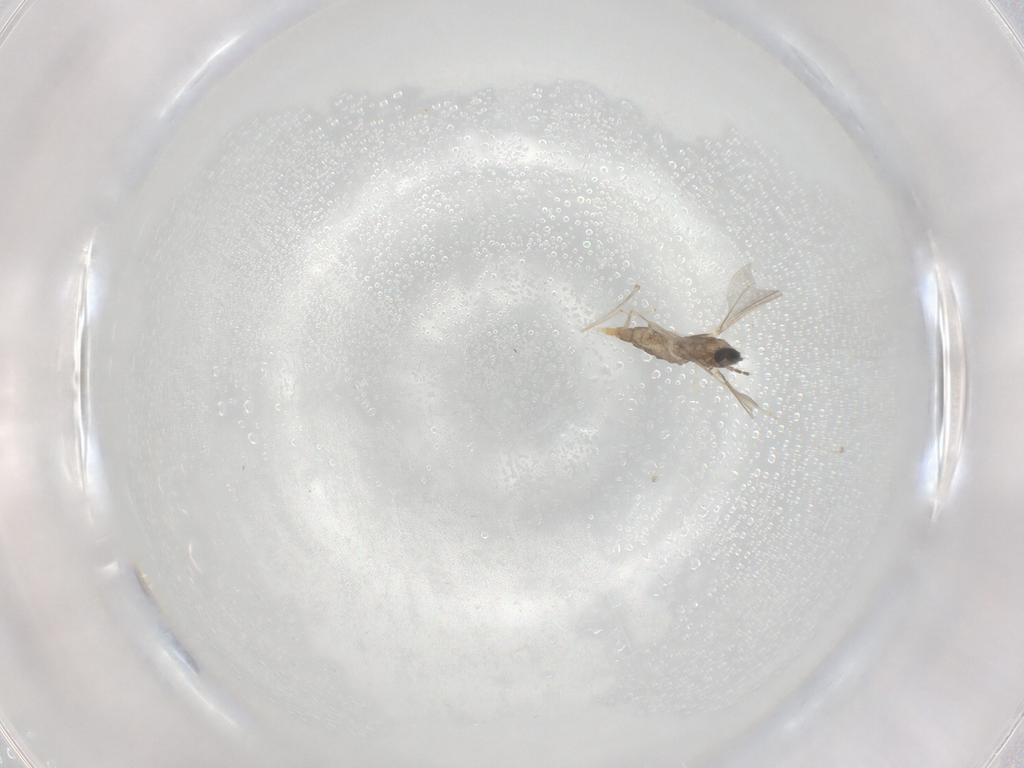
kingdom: Animalia
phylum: Arthropoda
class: Insecta
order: Diptera
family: Cecidomyiidae
